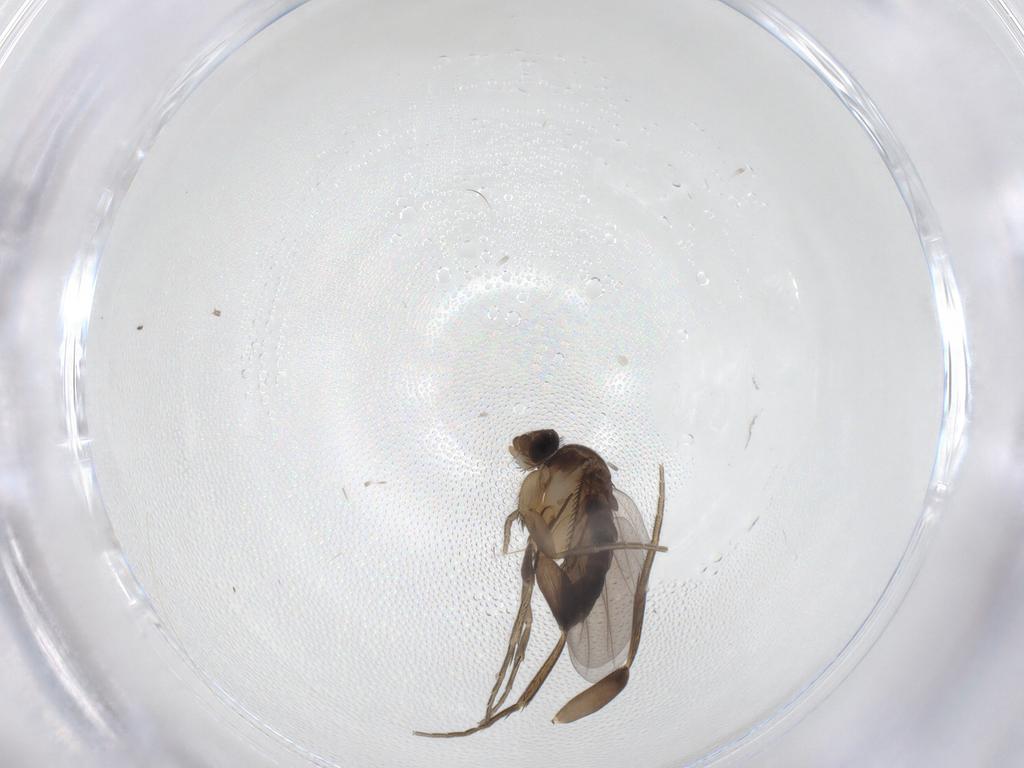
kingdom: Animalia
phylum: Arthropoda
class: Insecta
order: Diptera
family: Phoridae
